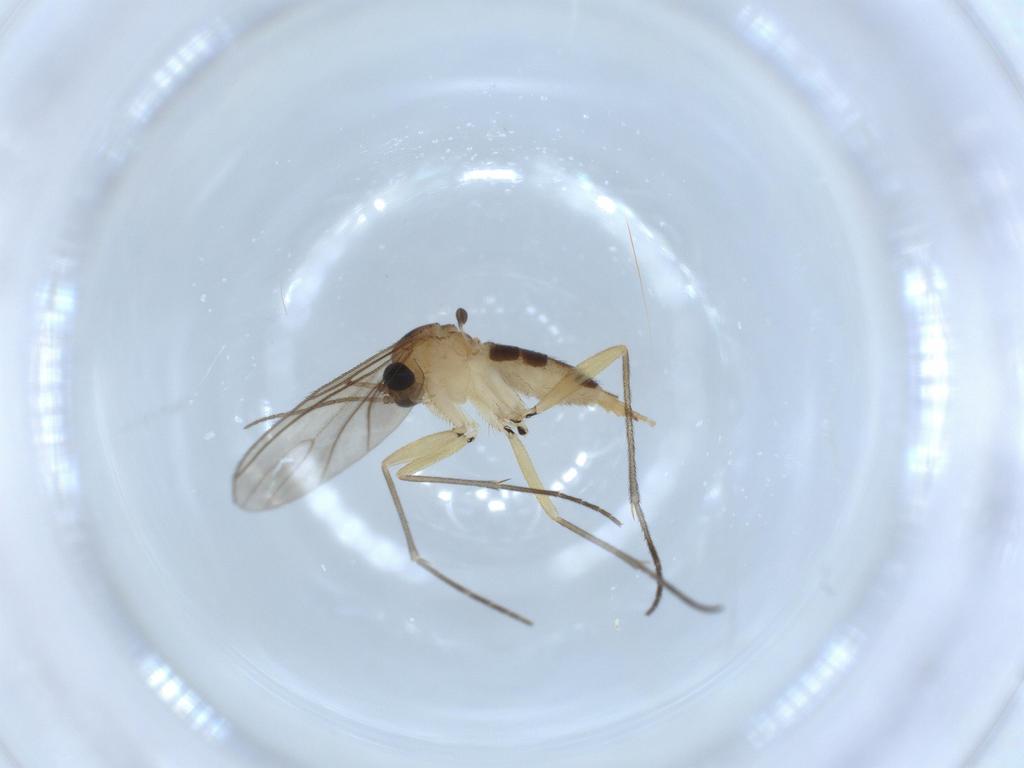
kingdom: Animalia
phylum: Arthropoda
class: Insecta
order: Diptera
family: Sciaridae
